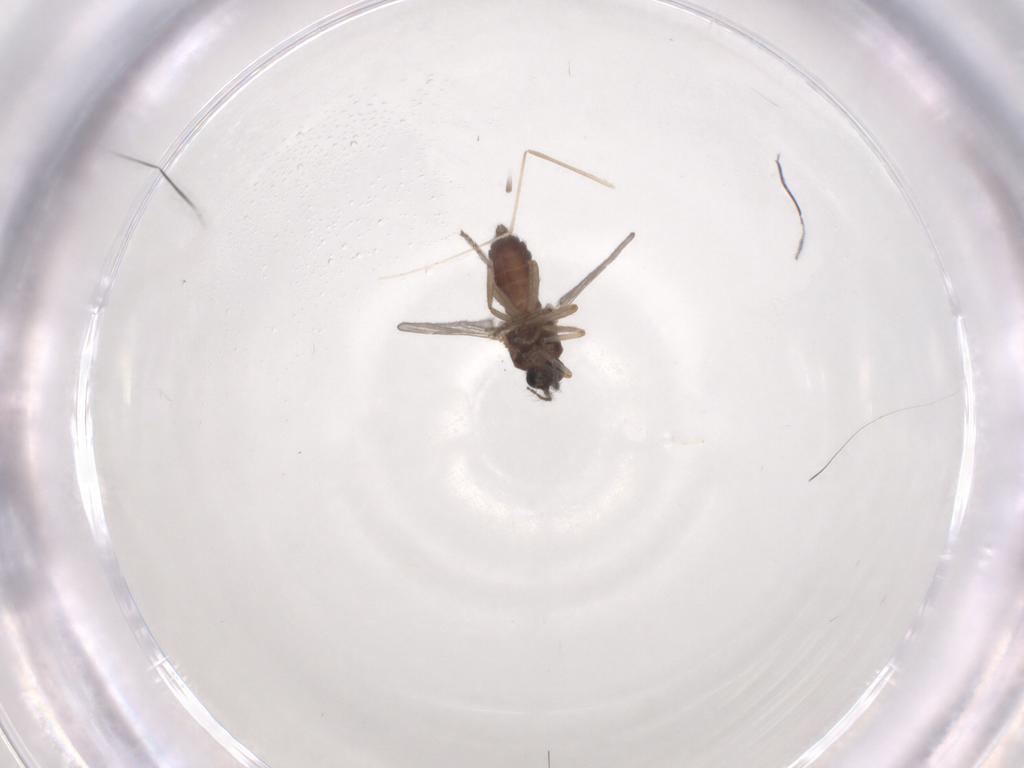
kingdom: Animalia
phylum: Arthropoda
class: Insecta
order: Diptera
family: Ceratopogonidae
